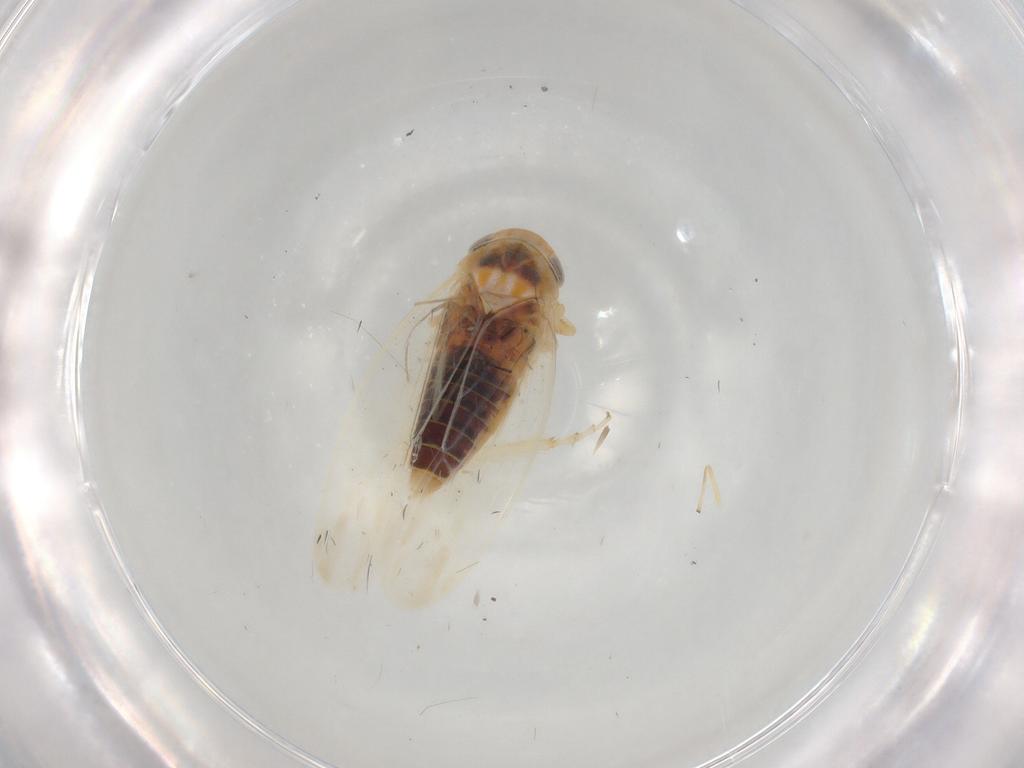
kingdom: Animalia
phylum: Arthropoda
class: Insecta
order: Hemiptera
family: Cicadellidae
